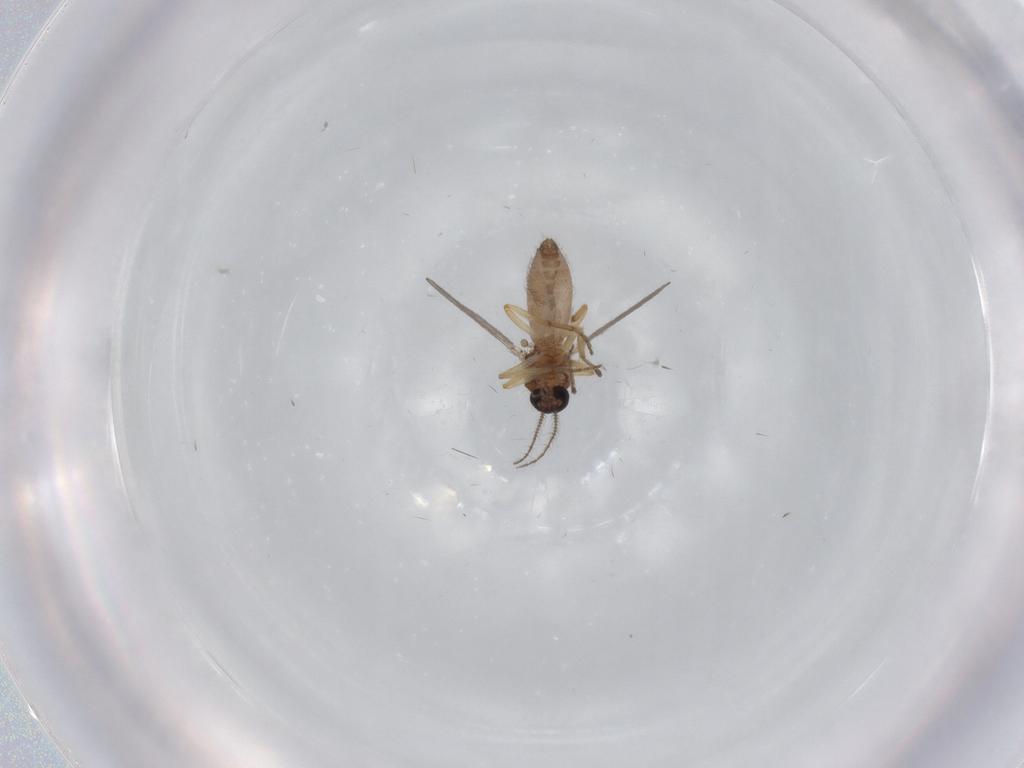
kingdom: Animalia
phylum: Arthropoda
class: Insecta
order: Diptera
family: Ceratopogonidae
